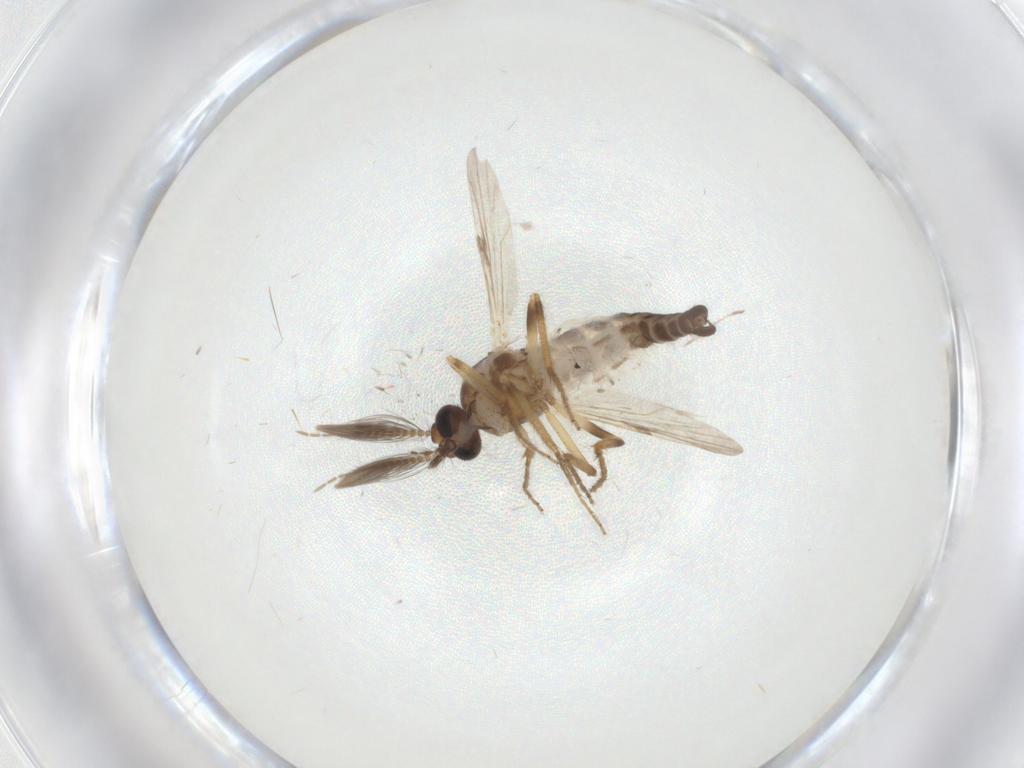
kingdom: Animalia
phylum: Arthropoda
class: Insecta
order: Diptera
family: Ceratopogonidae
